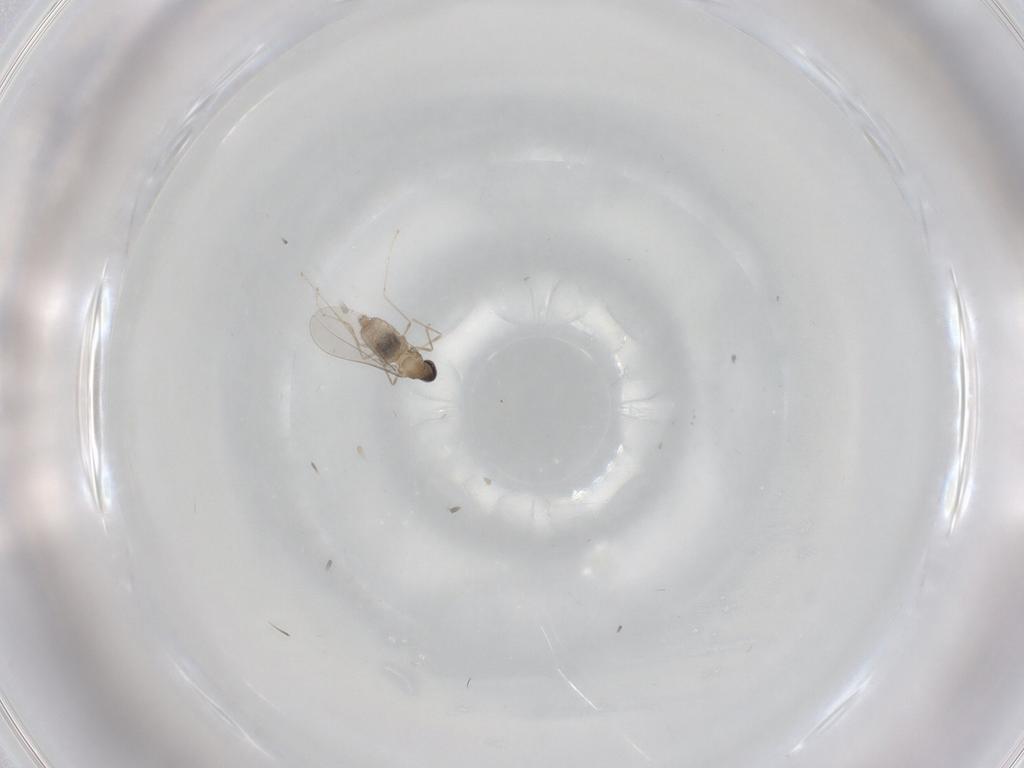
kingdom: Animalia
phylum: Arthropoda
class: Insecta
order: Diptera
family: Cecidomyiidae
